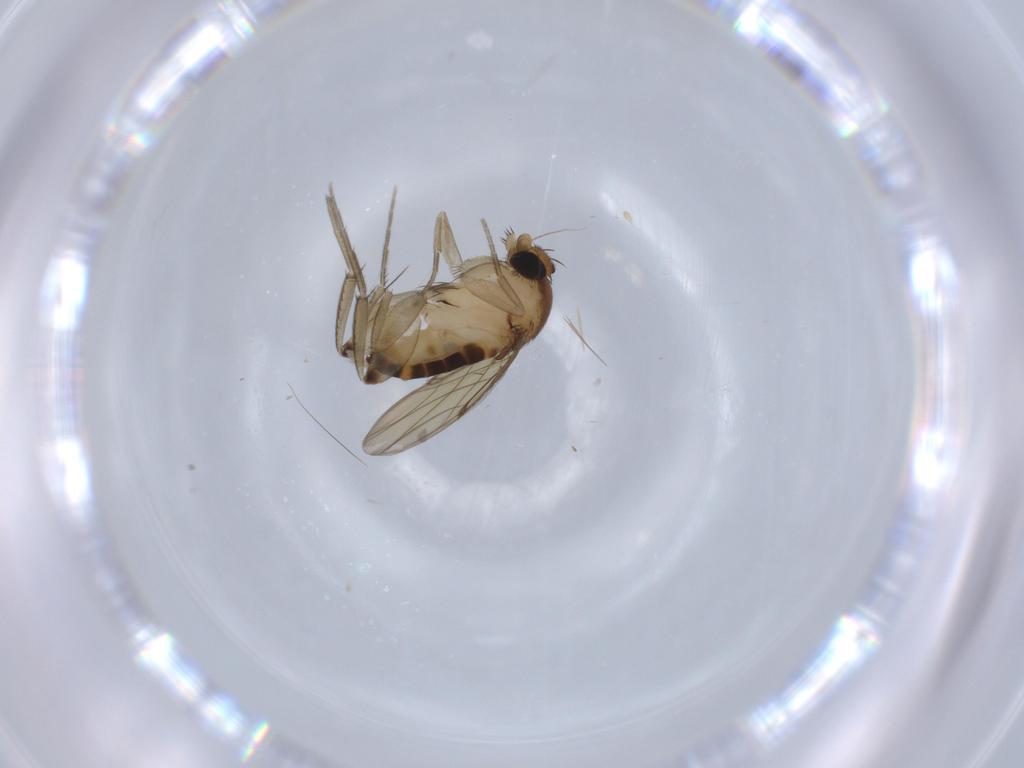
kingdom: Animalia
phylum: Arthropoda
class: Insecta
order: Diptera
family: Phoridae
